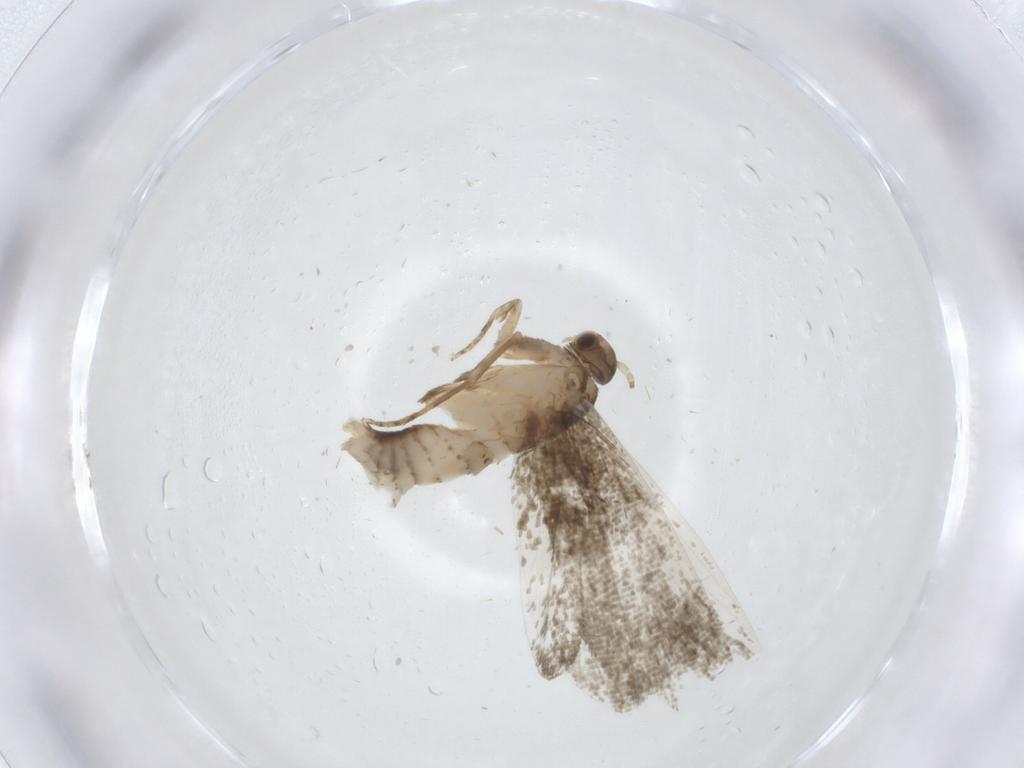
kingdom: Animalia
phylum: Arthropoda
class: Insecta
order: Lepidoptera
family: Tineidae
